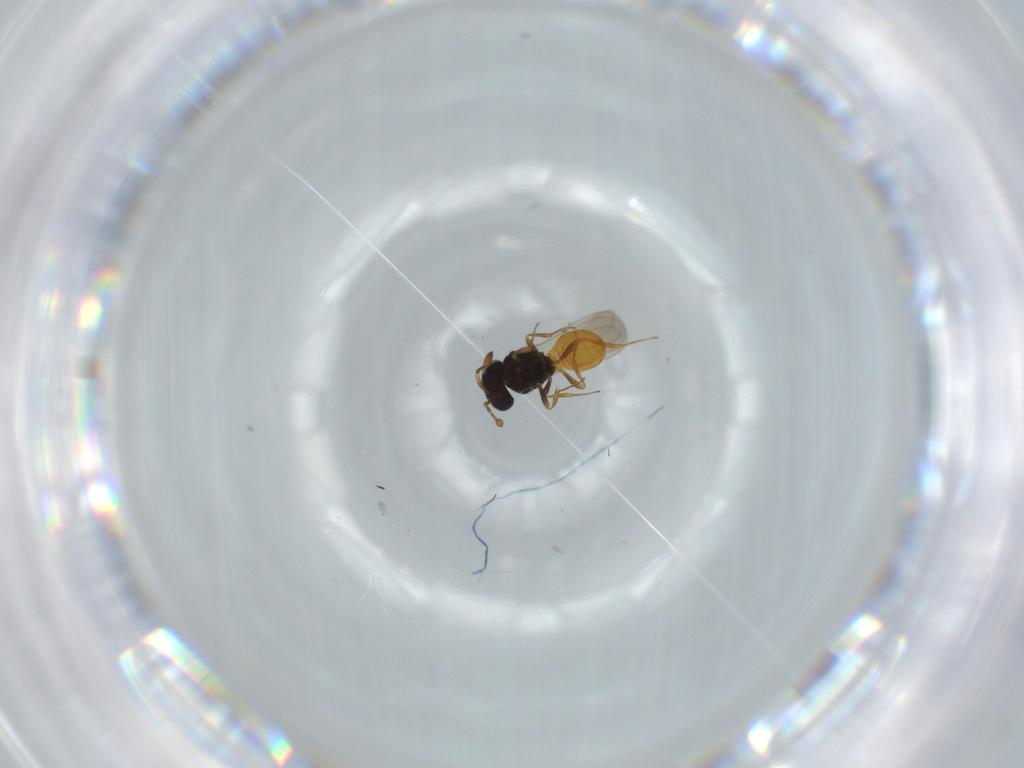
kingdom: Animalia
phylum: Arthropoda
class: Insecta
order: Hymenoptera
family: Scelionidae
